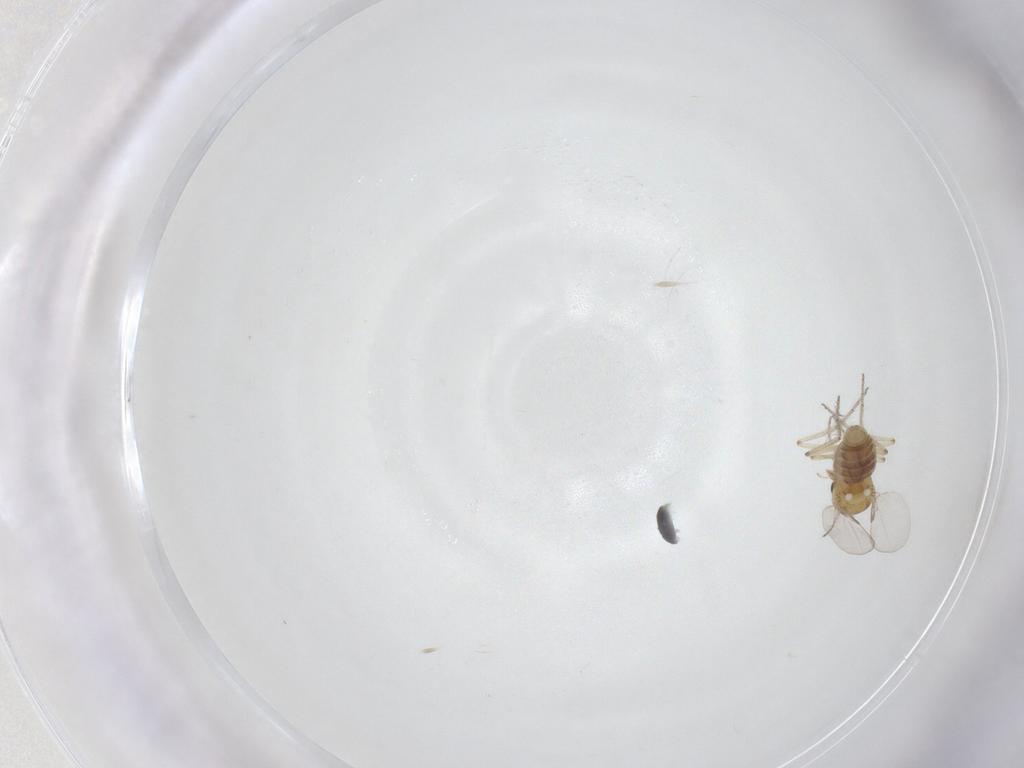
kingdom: Animalia
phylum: Arthropoda
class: Insecta
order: Diptera
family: Ceratopogonidae
